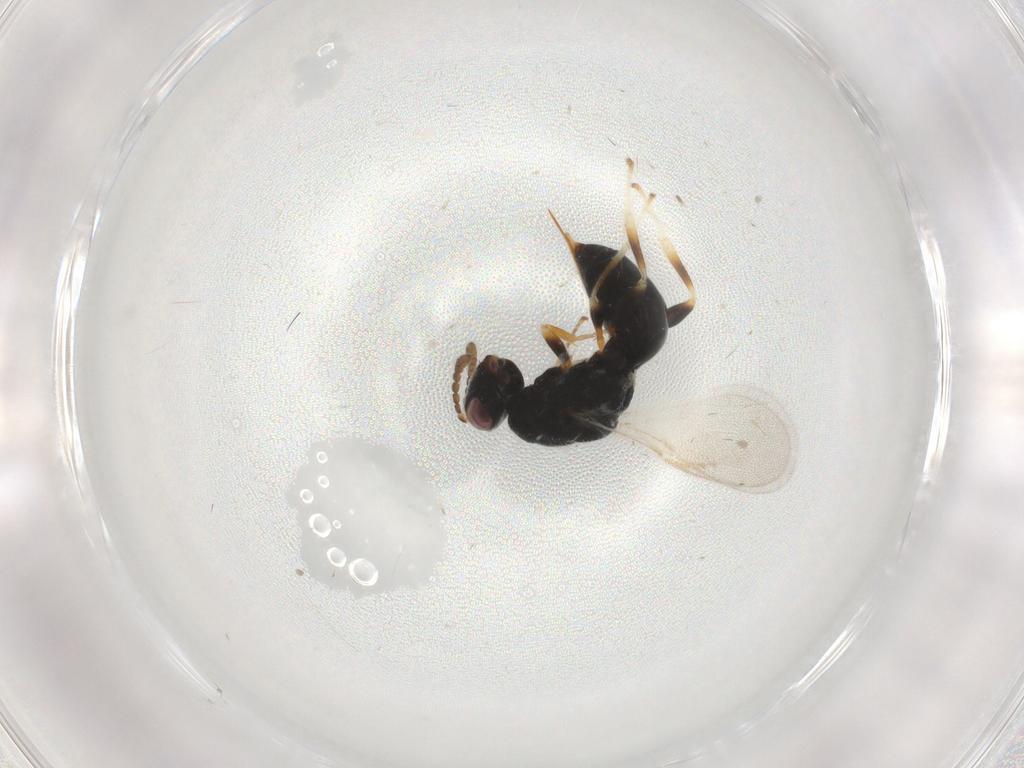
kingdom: Animalia
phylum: Arthropoda
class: Insecta
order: Hymenoptera
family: Eurytomidae
